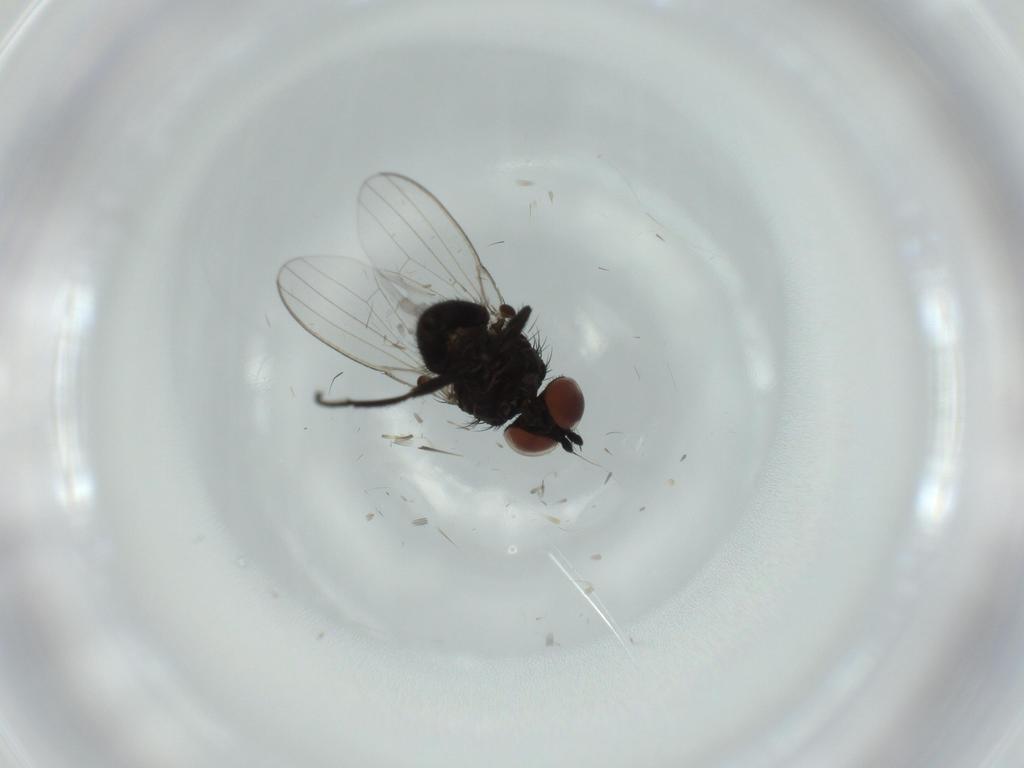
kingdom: Animalia
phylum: Arthropoda
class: Insecta
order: Diptera
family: Milichiidae
